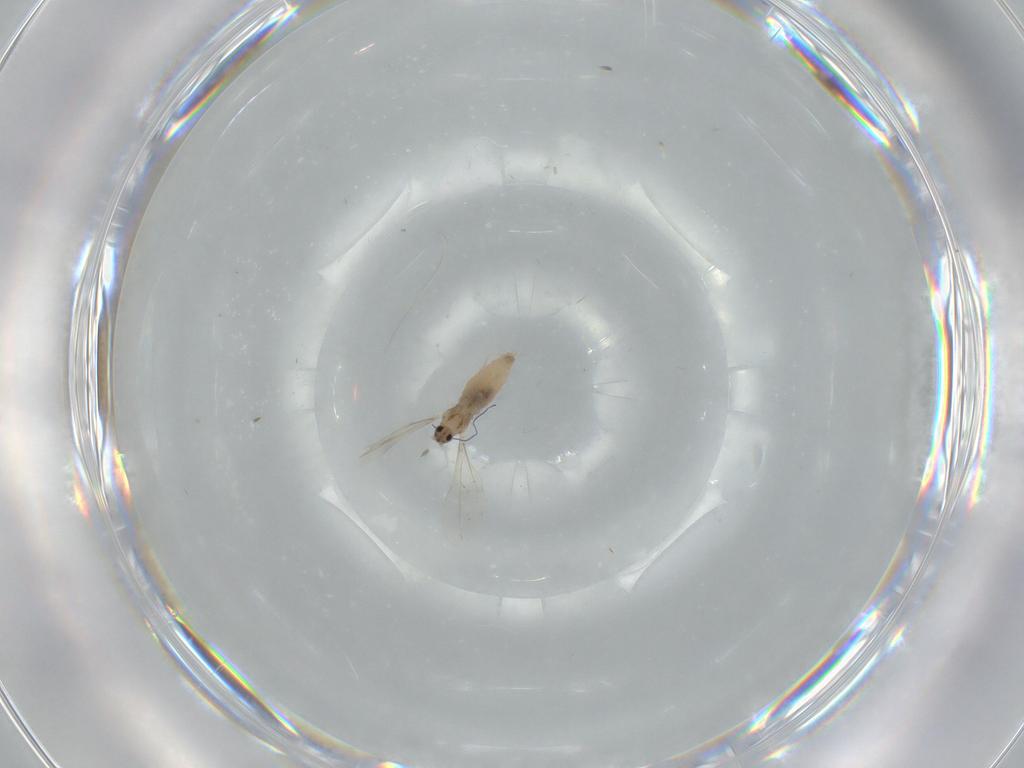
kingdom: Animalia
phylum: Arthropoda
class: Insecta
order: Diptera
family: Cecidomyiidae
